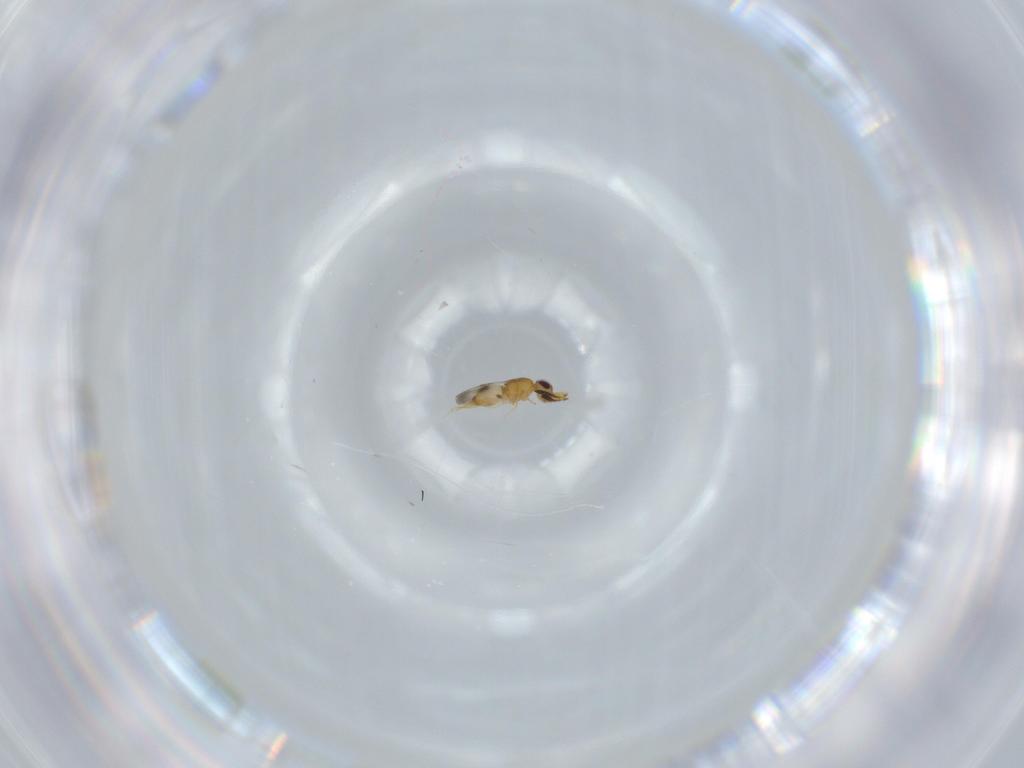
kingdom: Animalia
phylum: Arthropoda
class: Insecta
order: Hymenoptera
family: Ceraphronidae
